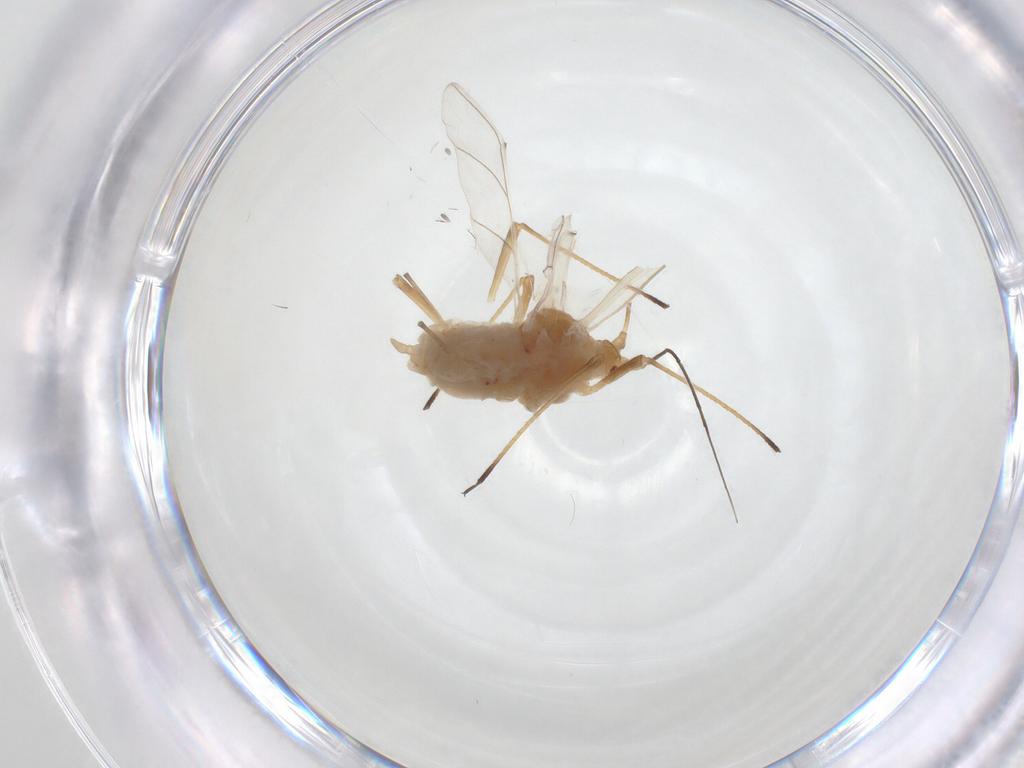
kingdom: Animalia
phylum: Arthropoda
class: Insecta
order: Hemiptera
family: Aphididae
